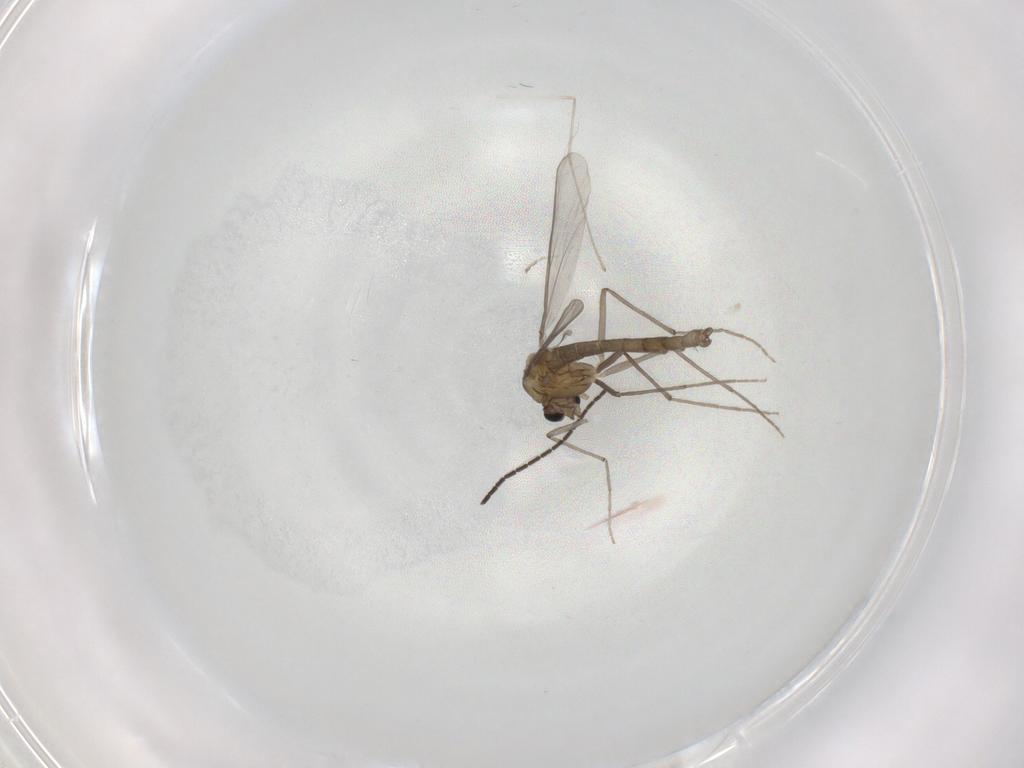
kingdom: Animalia
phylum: Arthropoda
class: Insecta
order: Diptera
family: Sciaridae
